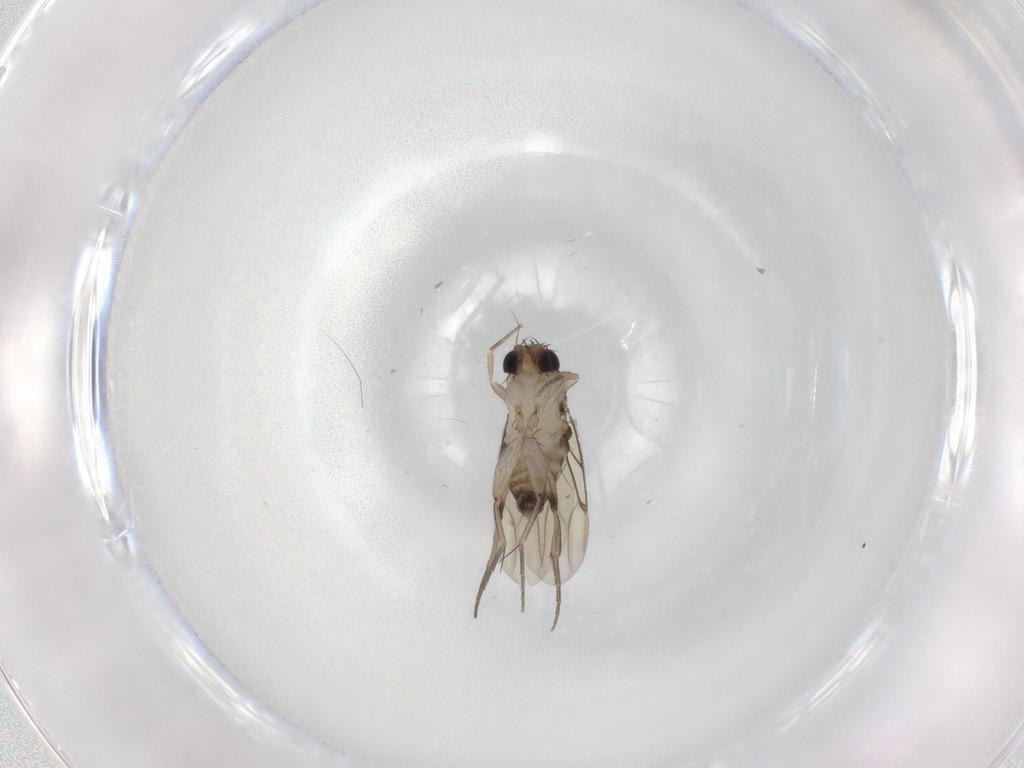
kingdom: Animalia
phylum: Arthropoda
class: Insecta
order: Diptera
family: Phoridae
